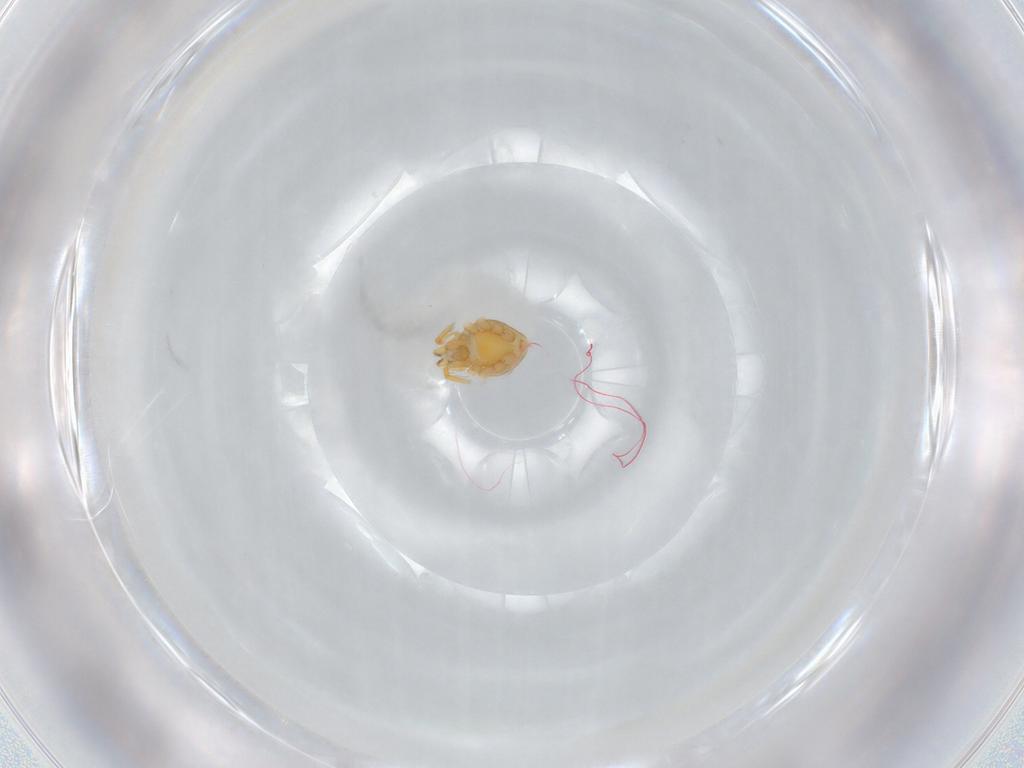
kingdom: Animalia
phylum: Arthropoda
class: Arachnida
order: Araneae
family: Oonopidae
